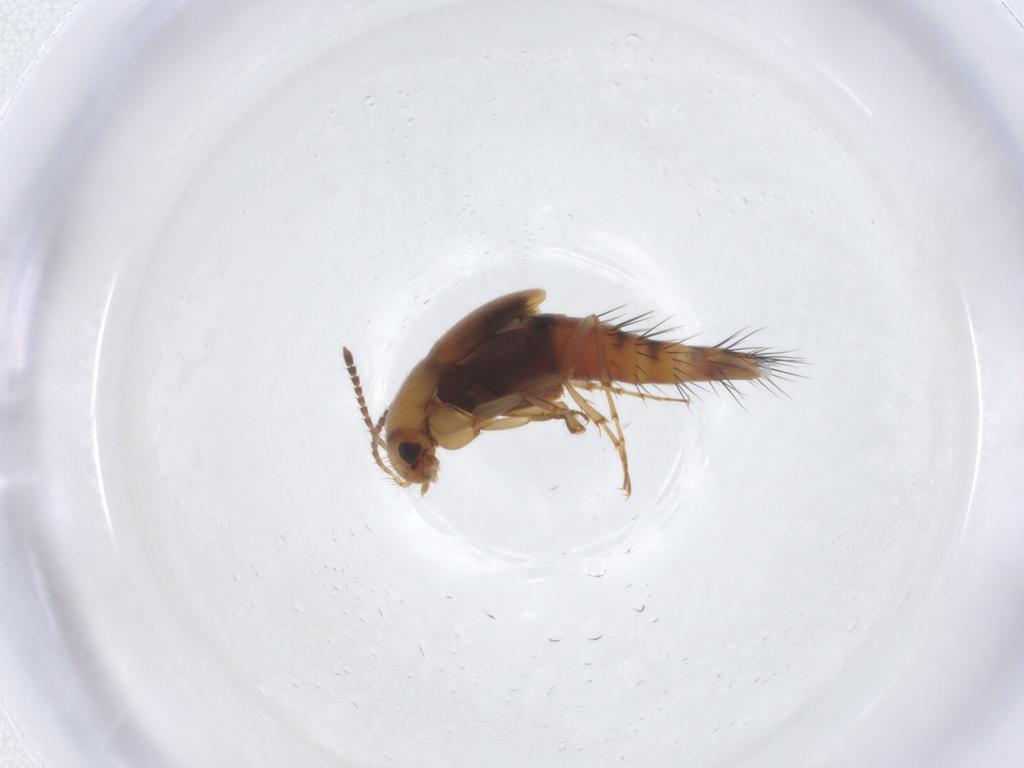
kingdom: Animalia
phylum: Arthropoda
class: Insecta
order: Coleoptera
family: Staphylinidae
